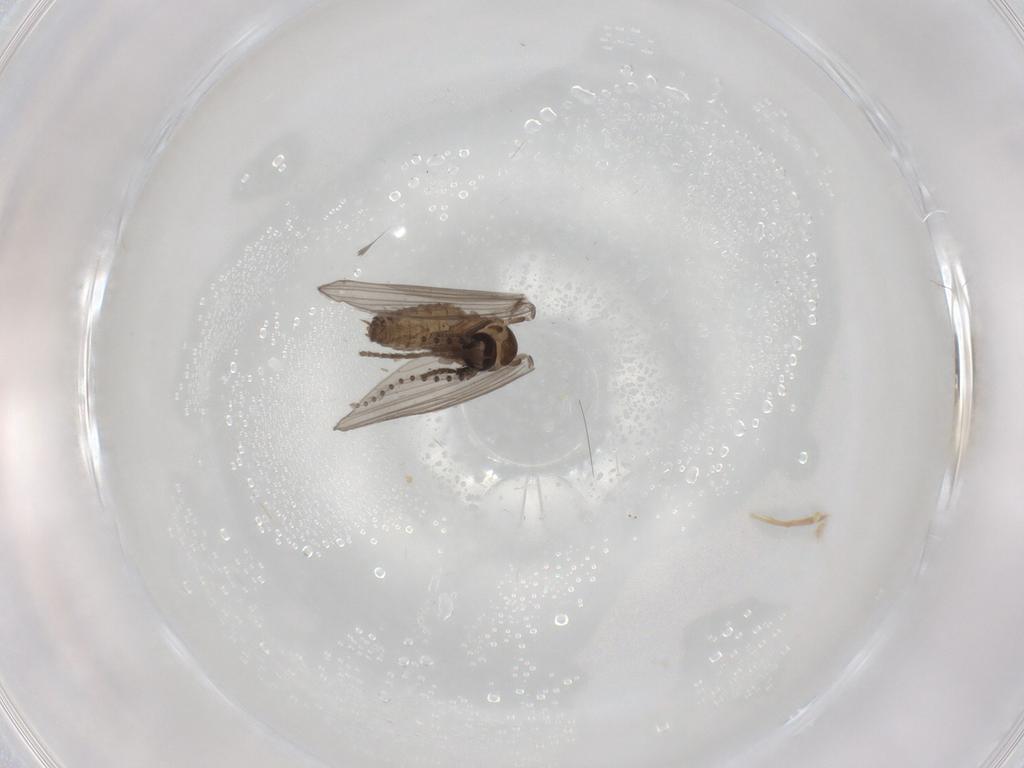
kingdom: Animalia
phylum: Arthropoda
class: Insecta
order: Diptera
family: Psychodidae
